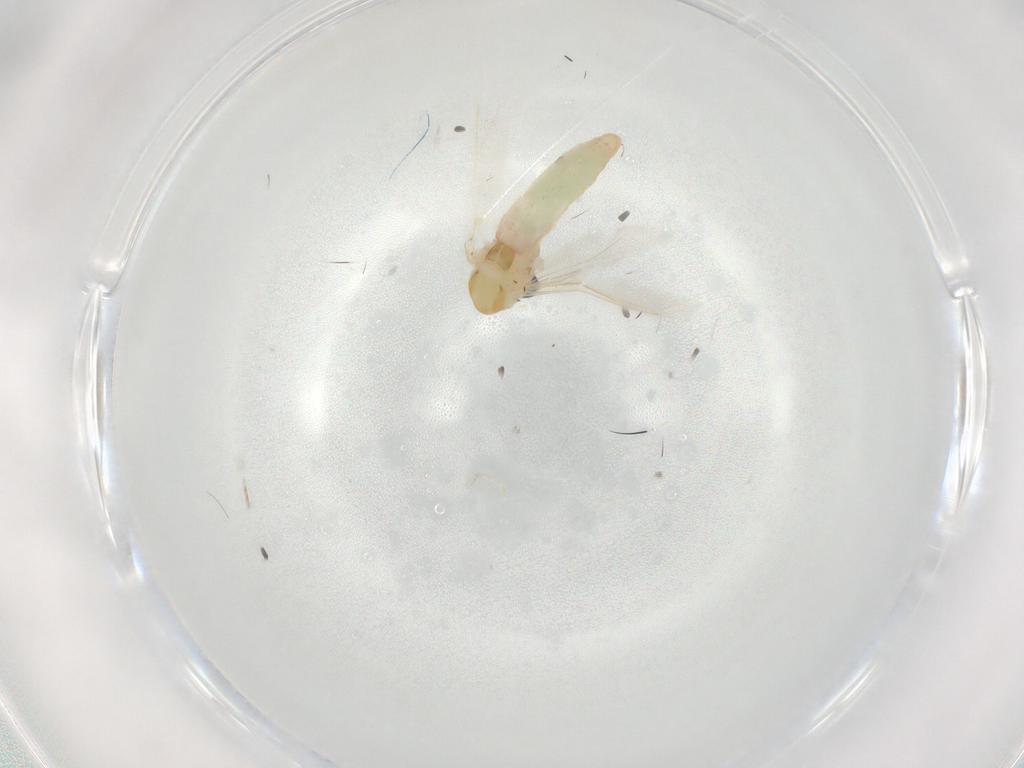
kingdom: Animalia
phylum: Arthropoda
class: Insecta
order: Diptera
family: Chironomidae
